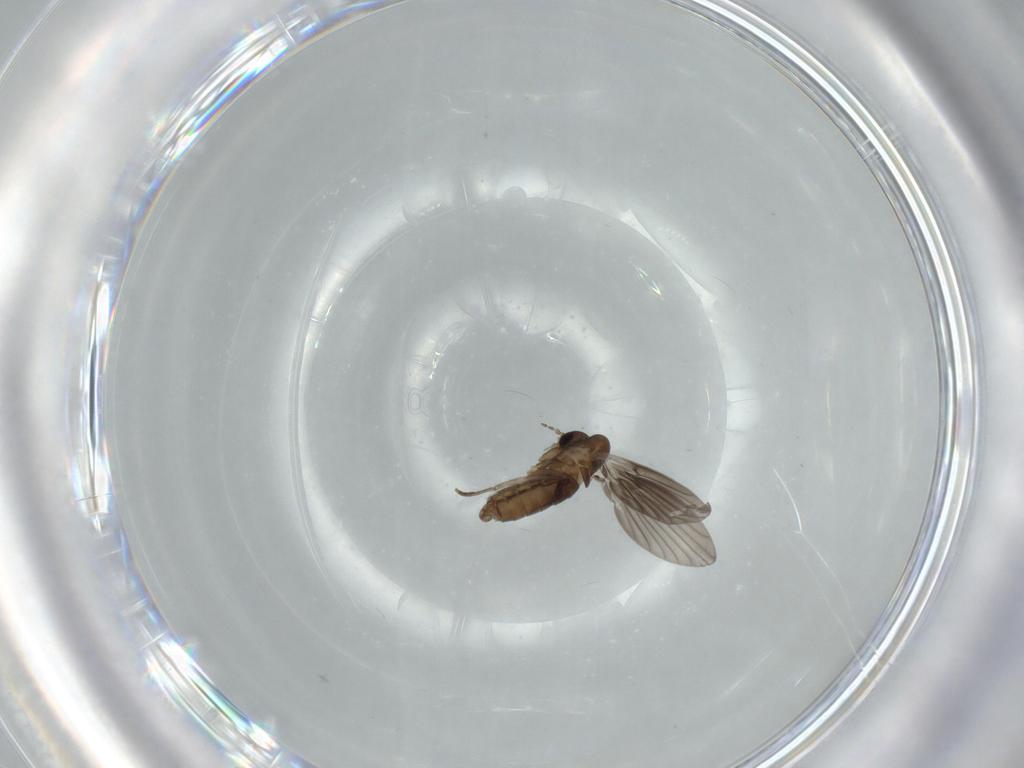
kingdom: Animalia
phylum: Arthropoda
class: Insecta
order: Diptera
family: Psychodidae
